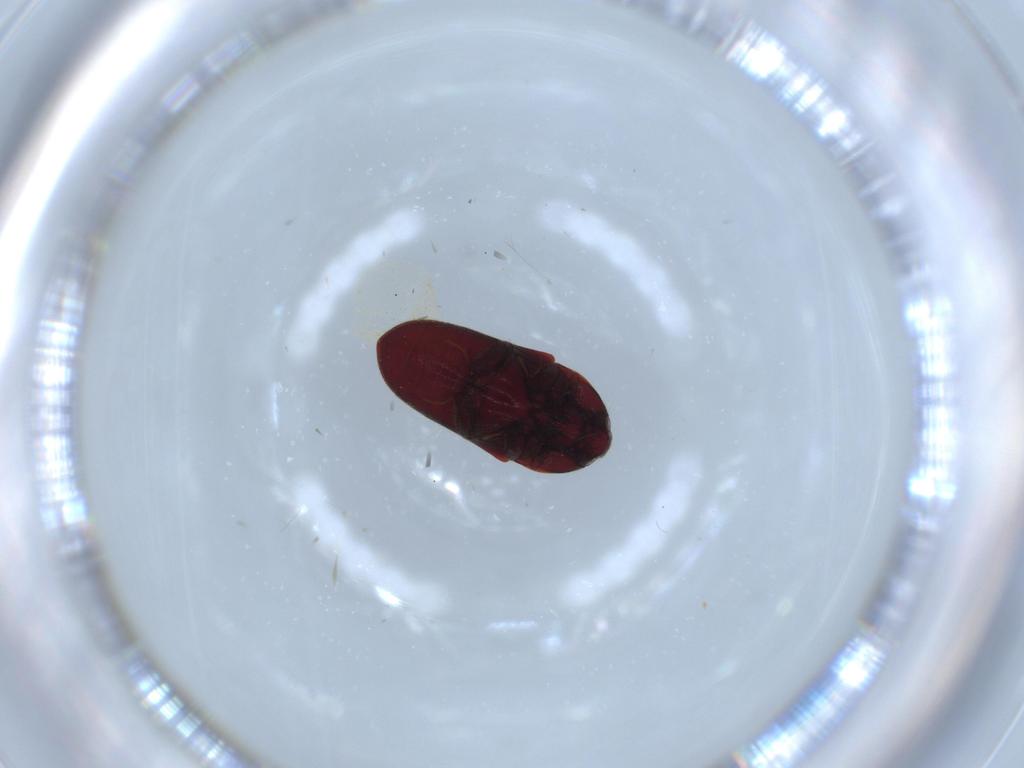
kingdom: Animalia
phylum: Arthropoda
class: Insecta
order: Coleoptera
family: Throscidae
